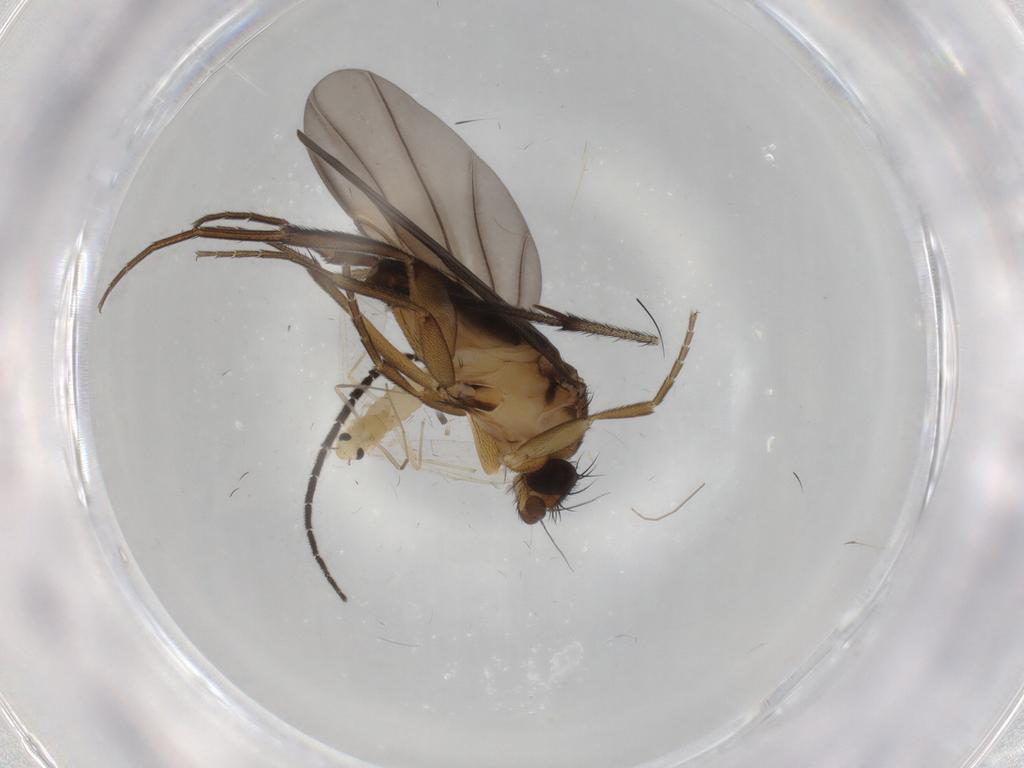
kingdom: Animalia
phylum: Arthropoda
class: Insecta
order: Diptera
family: Chironomidae
